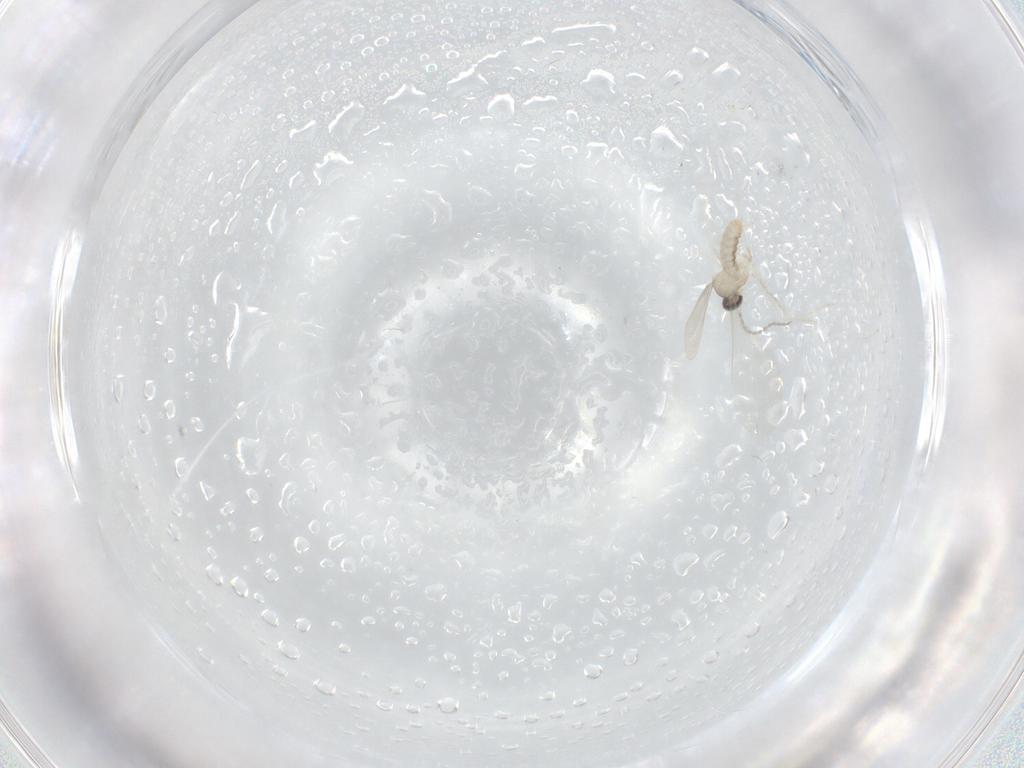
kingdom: Animalia
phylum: Arthropoda
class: Insecta
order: Diptera
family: Cecidomyiidae
